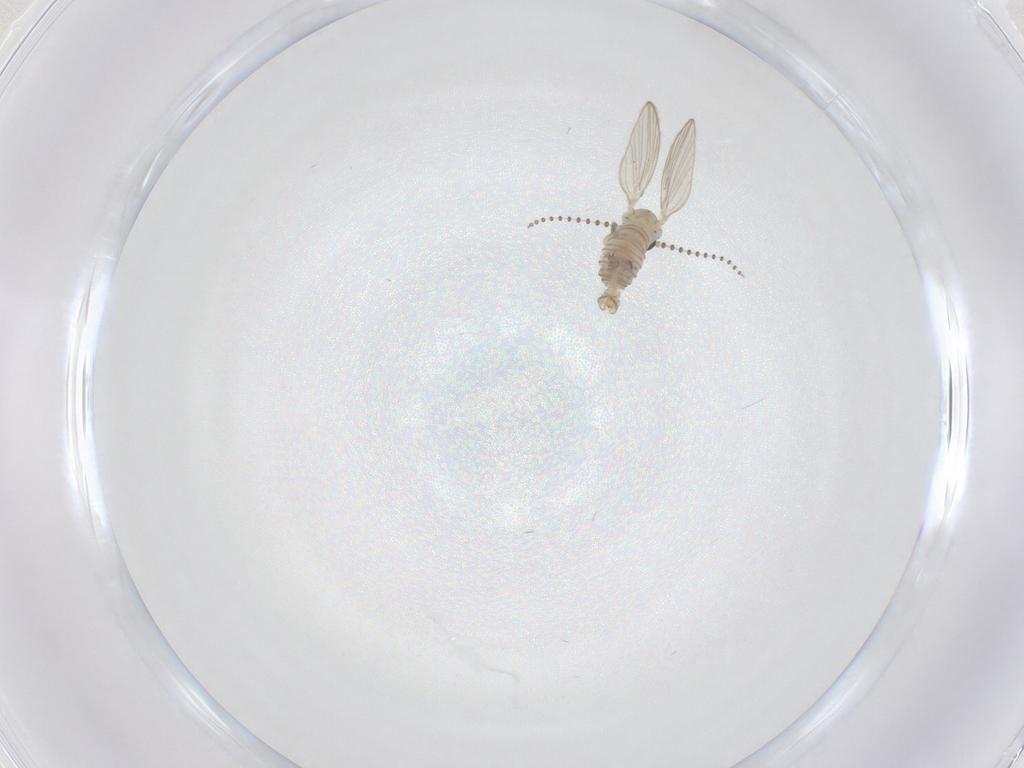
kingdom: Animalia
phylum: Arthropoda
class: Insecta
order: Diptera
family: Psychodidae
